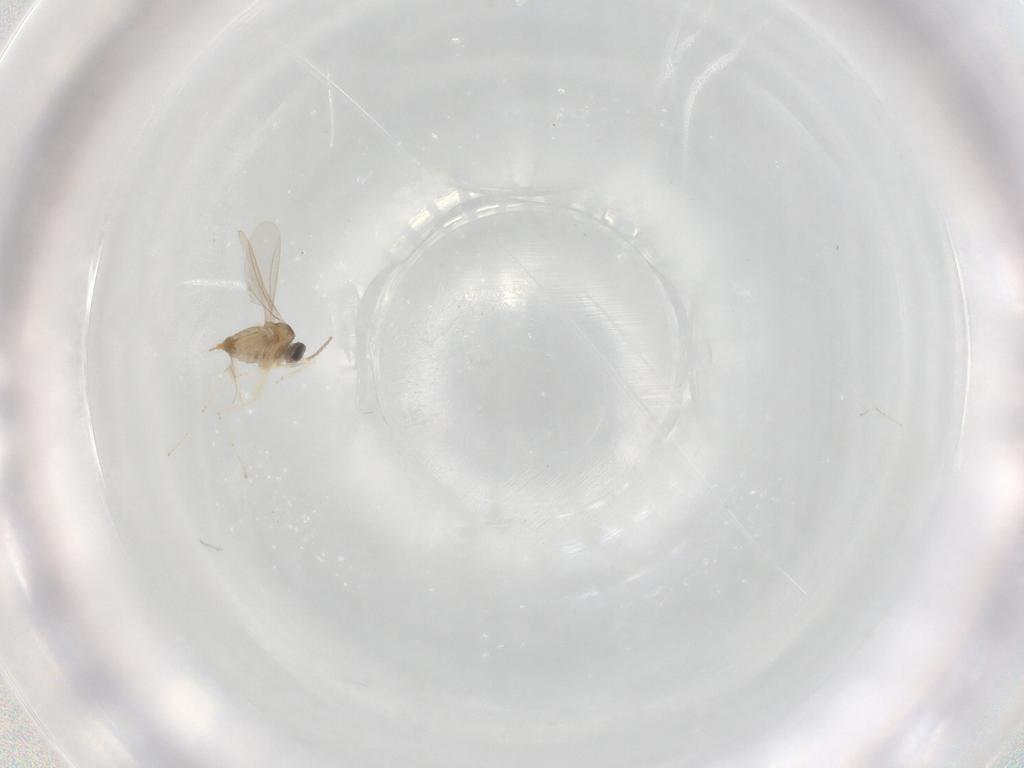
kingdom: Animalia
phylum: Arthropoda
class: Insecta
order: Diptera
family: Cecidomyiidae
